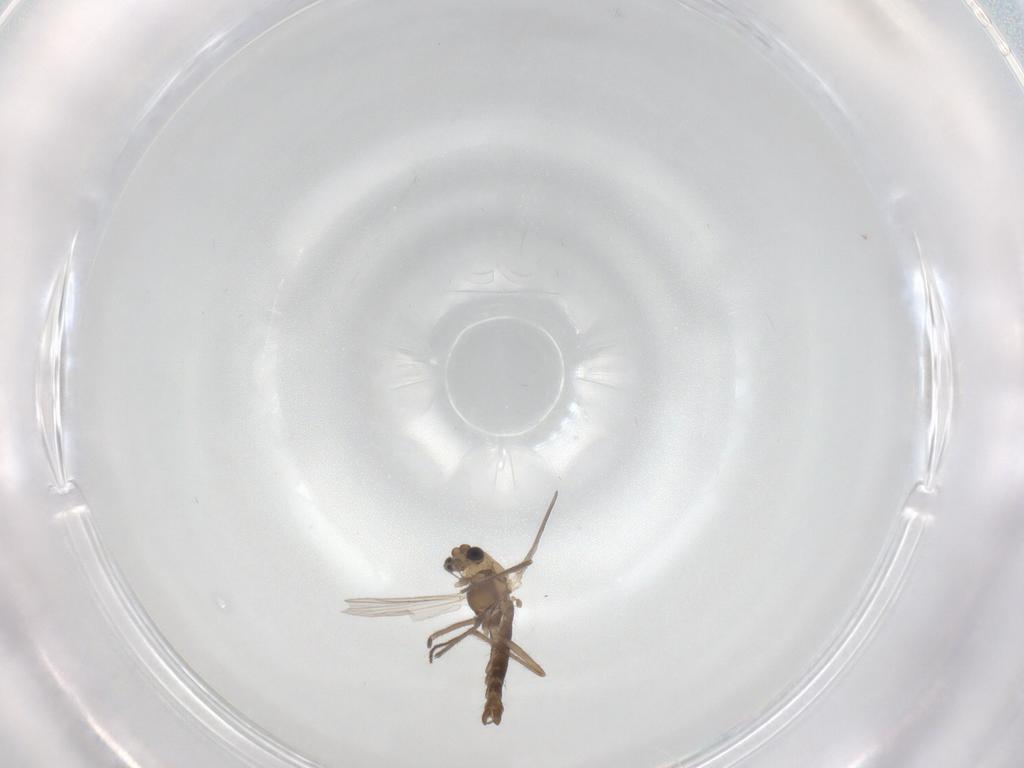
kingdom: Animalia
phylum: Arthropoda
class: Insecta
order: Diptera
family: Chironomidae
